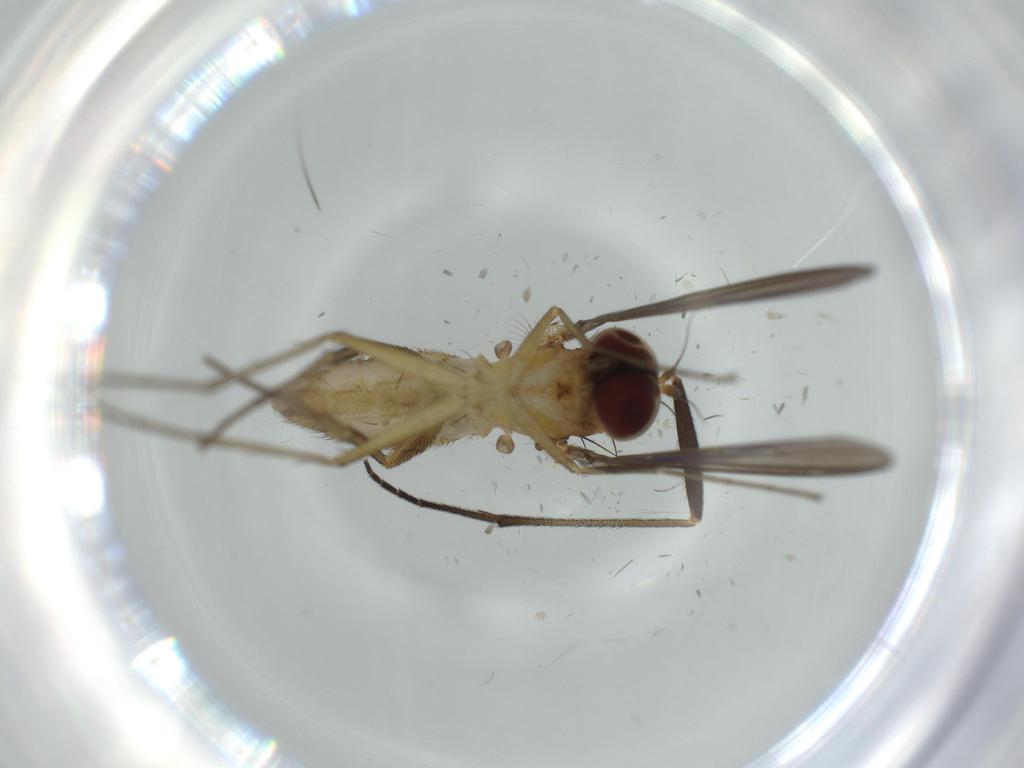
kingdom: Animalia
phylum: Arthropoda
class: Insecta
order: Diptera
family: Dolichopodidae
